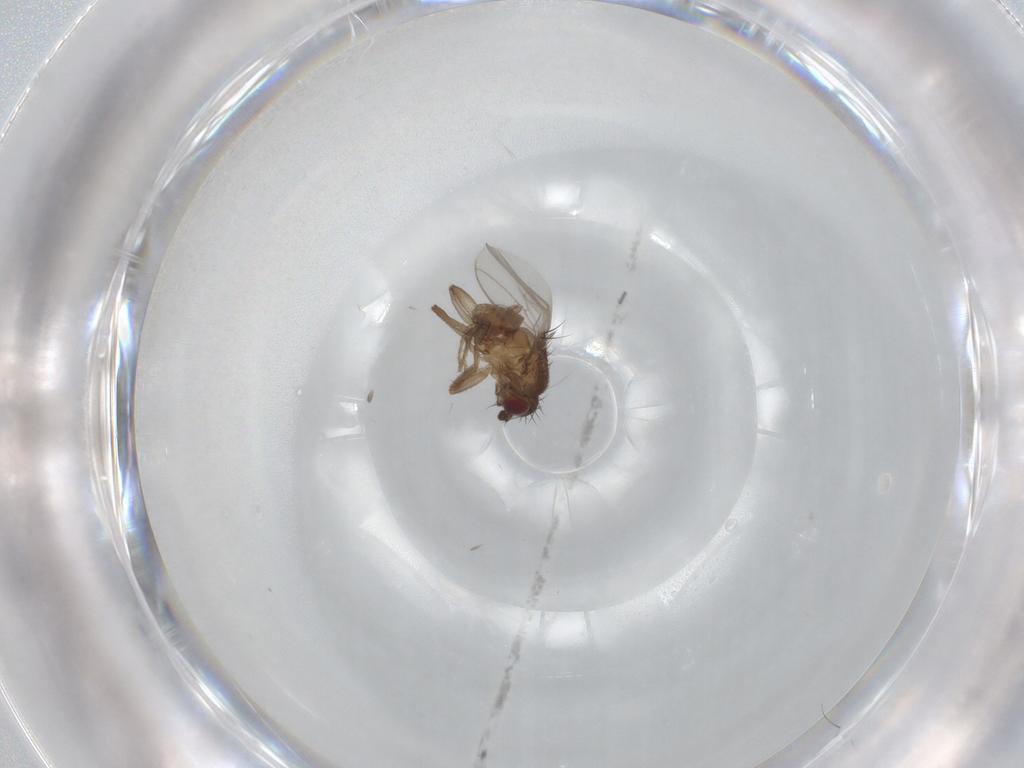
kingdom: Animalia
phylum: Arthropoda
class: Insecta
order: Diptera
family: Sphaeroceridae
